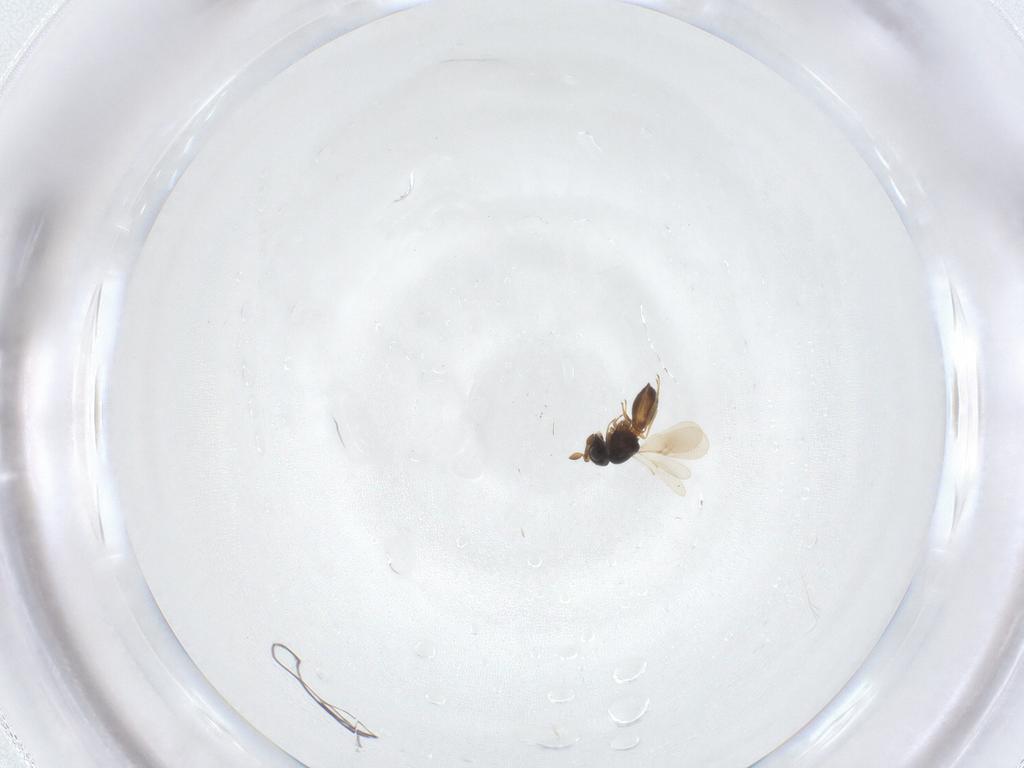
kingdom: Animalia
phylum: Arthropoda
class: Insecta
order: Hymenoptera
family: Scelionidae
